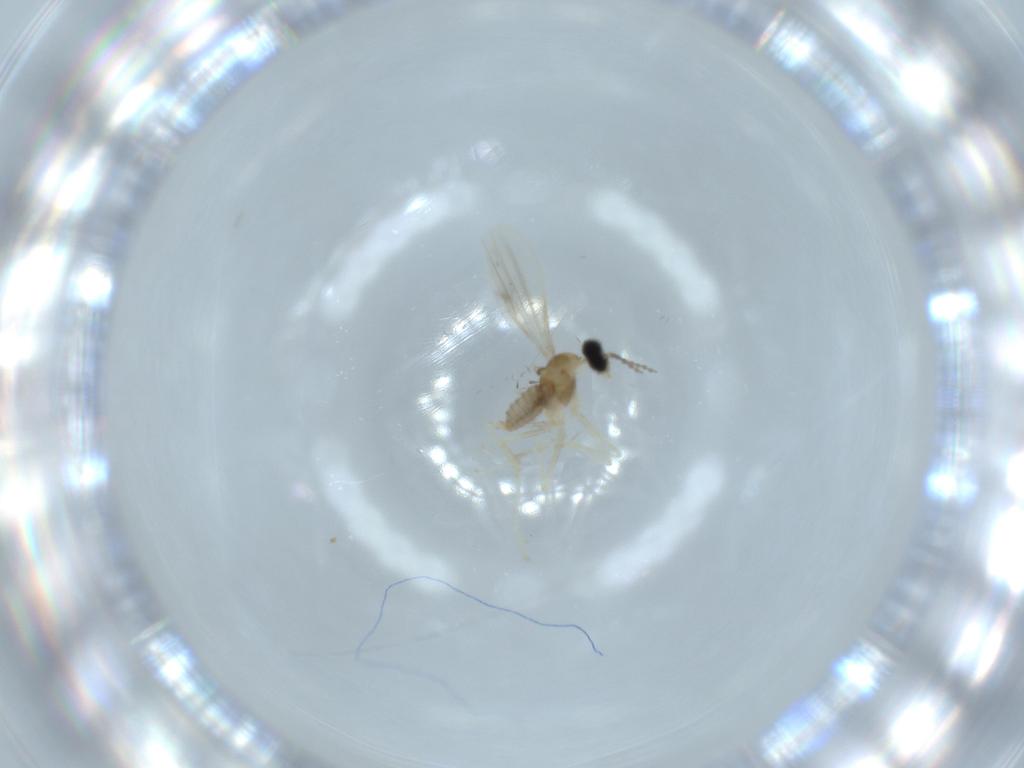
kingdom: Animalia
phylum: Arthropoda
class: Insecta
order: Diptera
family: Cecidomyiidae
